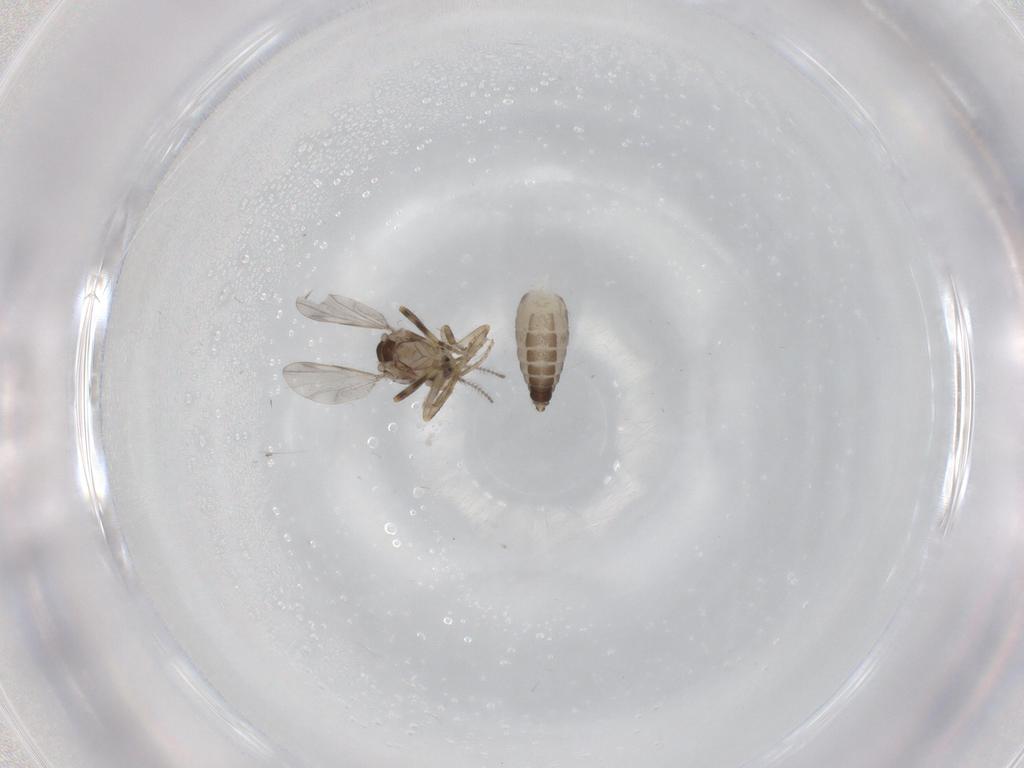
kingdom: Animalia
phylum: Arthropoda
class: Insecta
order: Diptera
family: Ceratopogonidae
